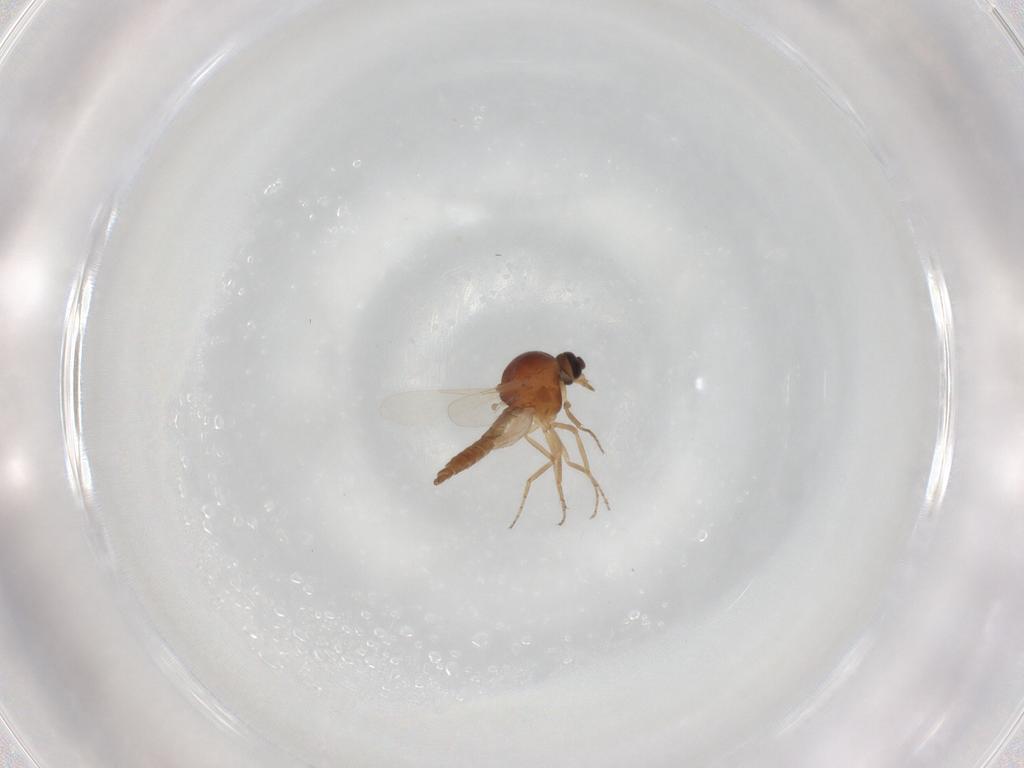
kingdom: Animalia
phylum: Arthropoda
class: Insecta
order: Diptera
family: Ceratopogonidae
